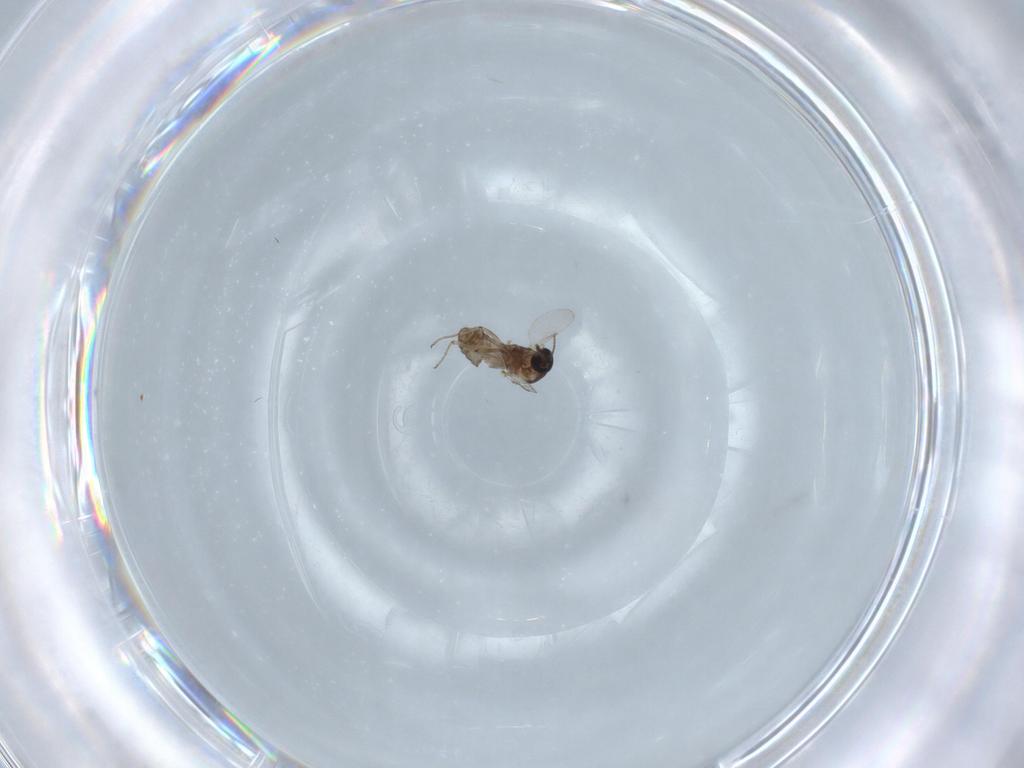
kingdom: Animalia
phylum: Arthropoda
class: Insecta
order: Diptera
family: Ceratopogonidae
